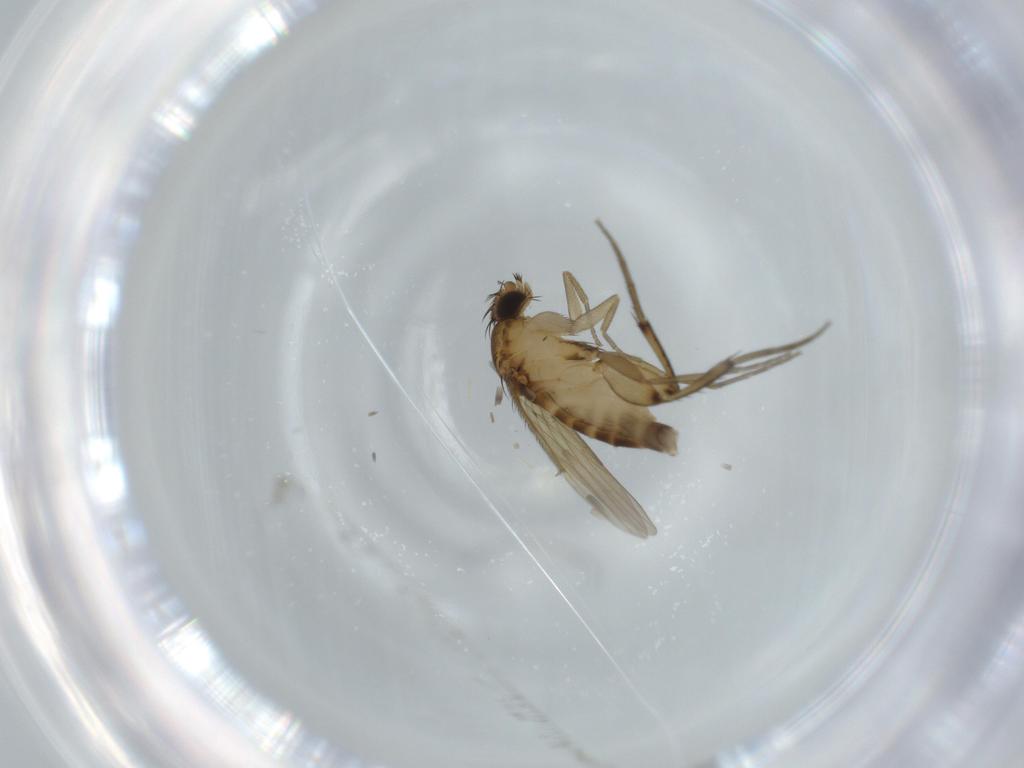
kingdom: Animalia
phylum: Arthropoda
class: Insecta
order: Diptera
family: Phoridae
